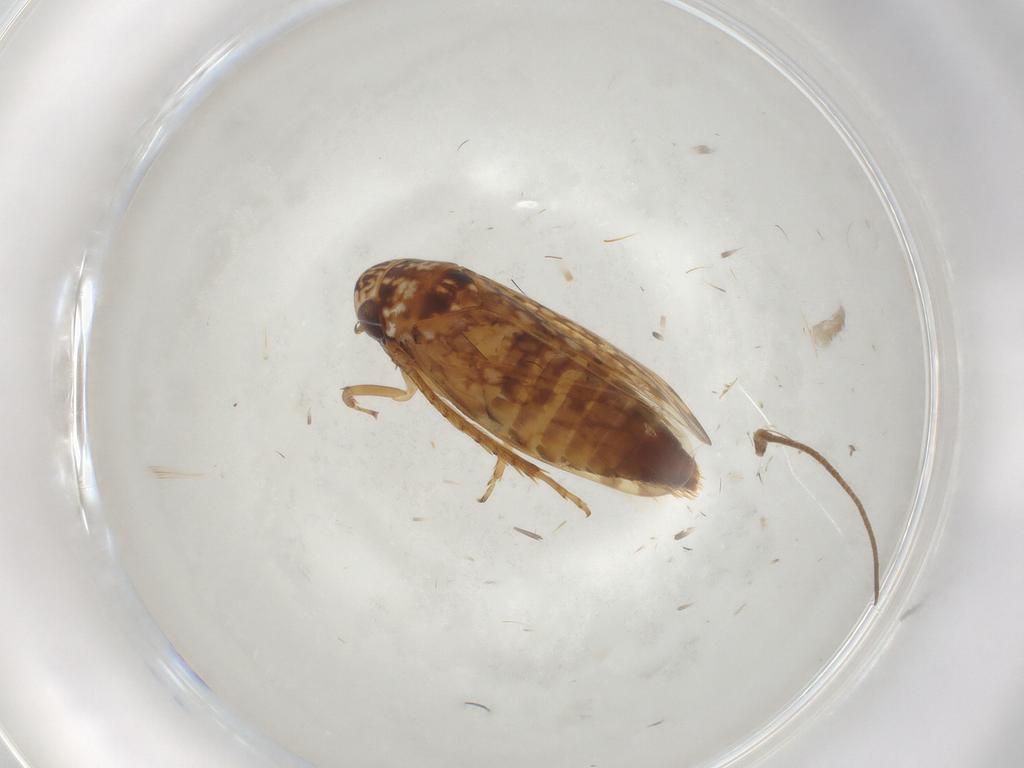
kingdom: Animalia
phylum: Arthropoda
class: Insecta
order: Hemiptera
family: Cicadellidae
